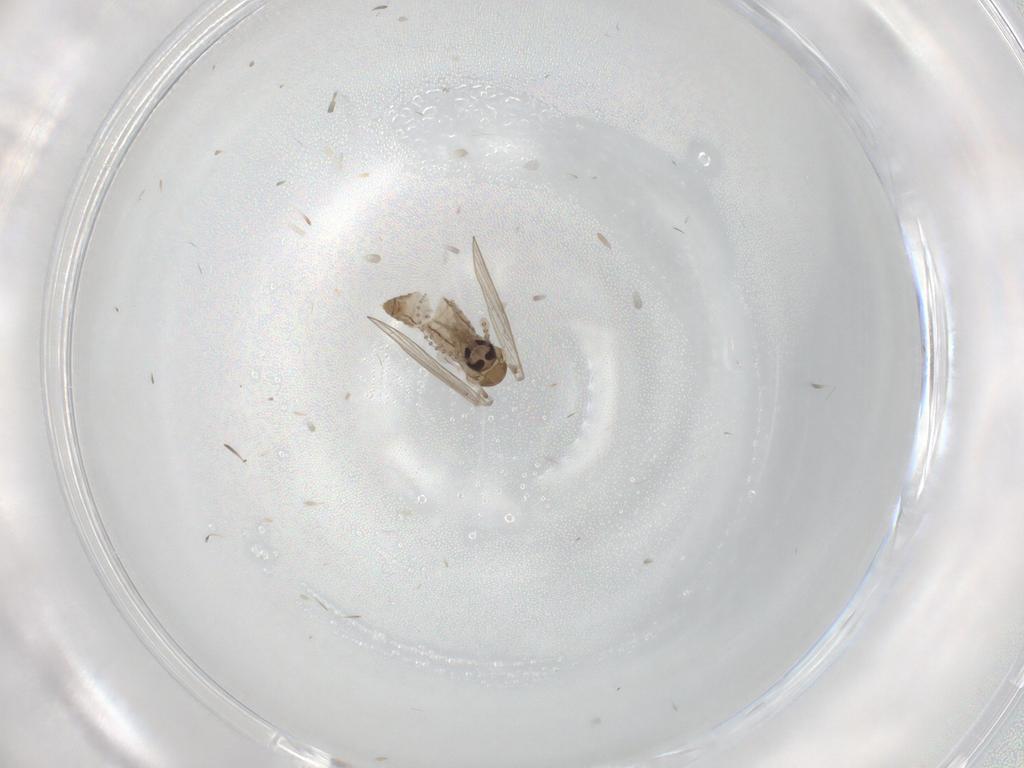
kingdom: Animalia
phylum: Arthropoda
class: Insecta
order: Diptera
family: Psychodidae
